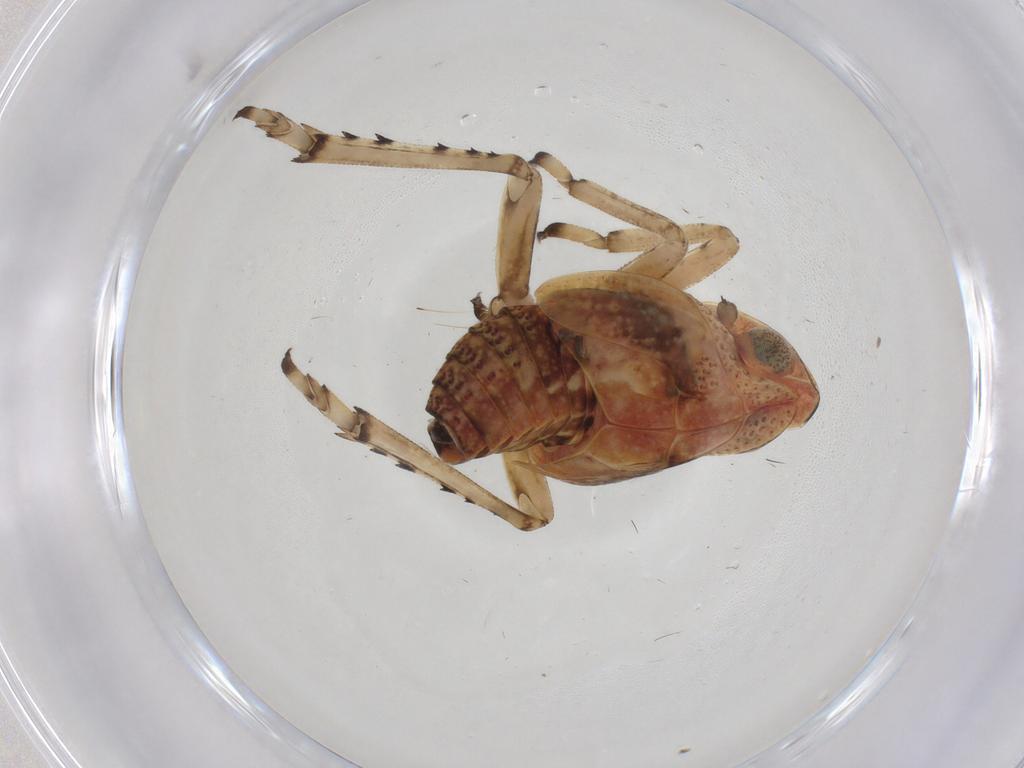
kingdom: Animalia
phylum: Arthropoda
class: Insecta
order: Hemiptera
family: Tropiduchidae
